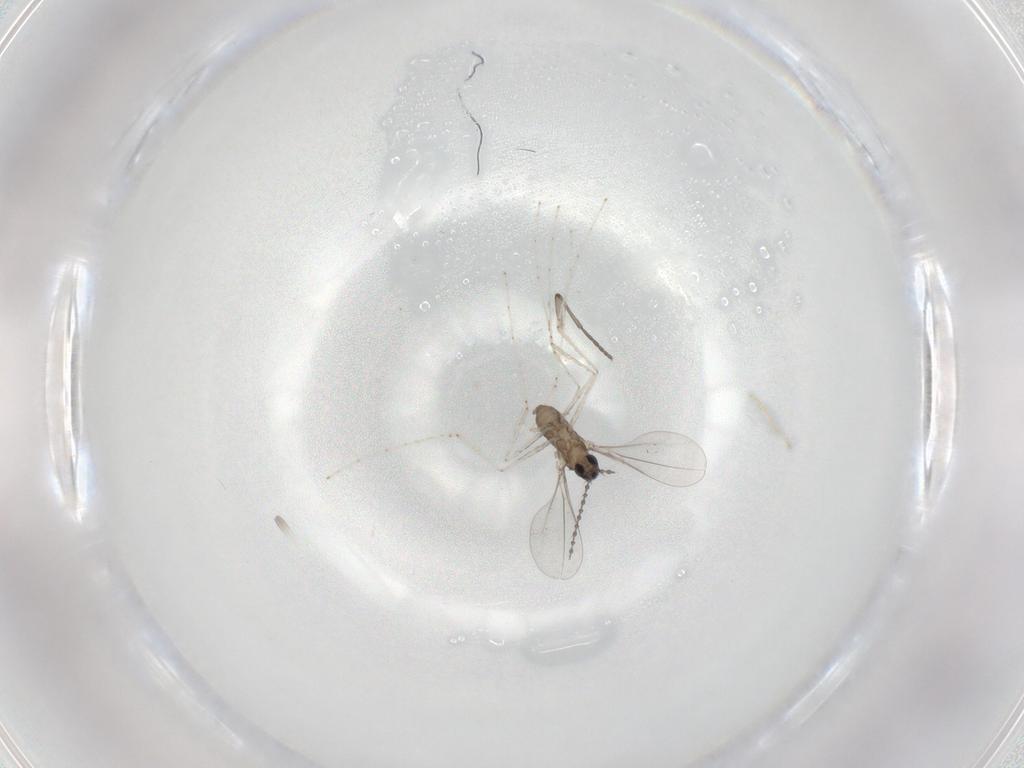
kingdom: Animalia
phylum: Arthropoda
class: Insecta
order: Diptera
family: Cecidomyiidae
